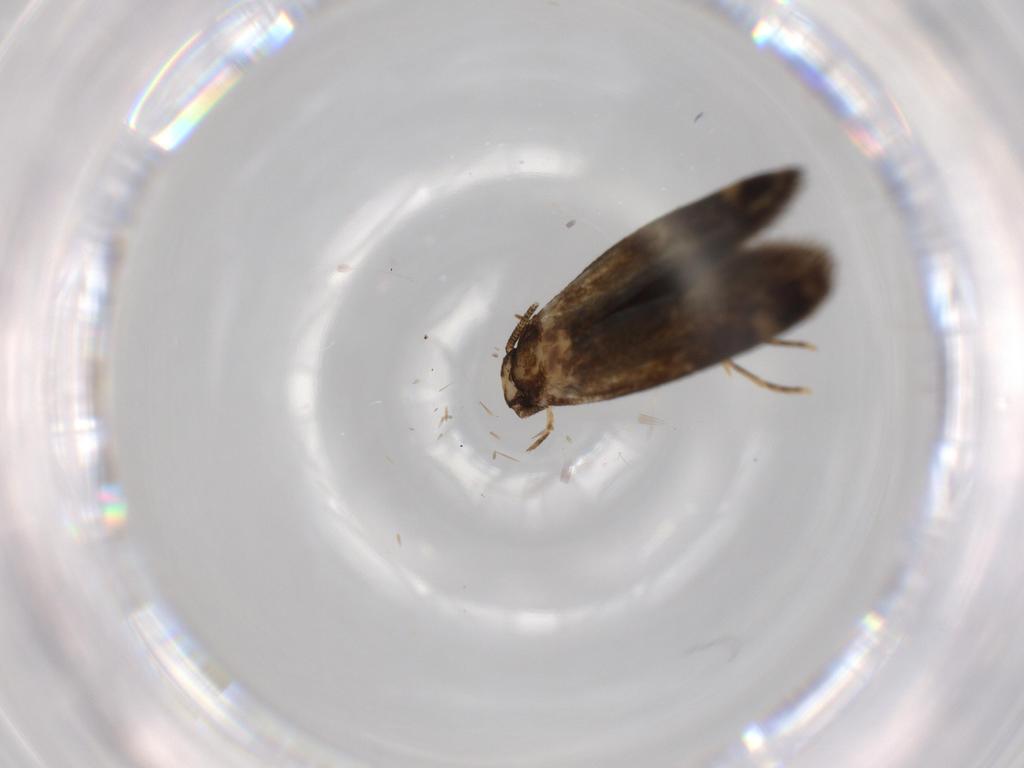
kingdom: Animalia
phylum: Arthropoda
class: Insecta
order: Lepidoptera
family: Tineidae
